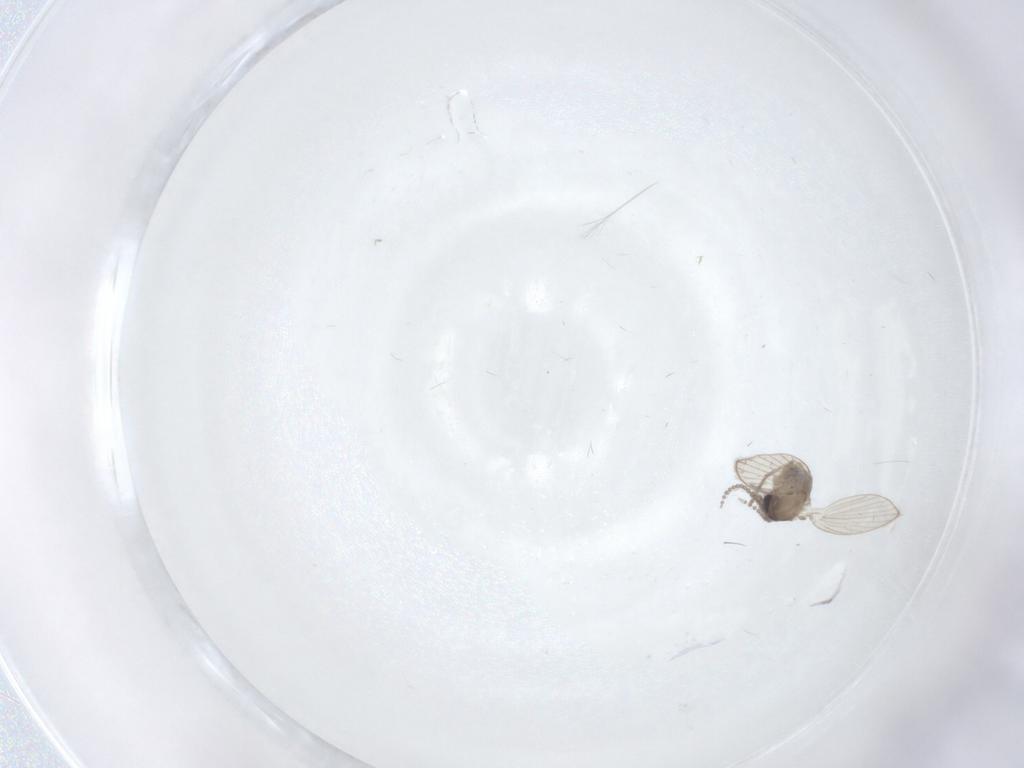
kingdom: Animalia
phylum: Arthropoda
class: Insecta
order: Diptera
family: Psychodidae
